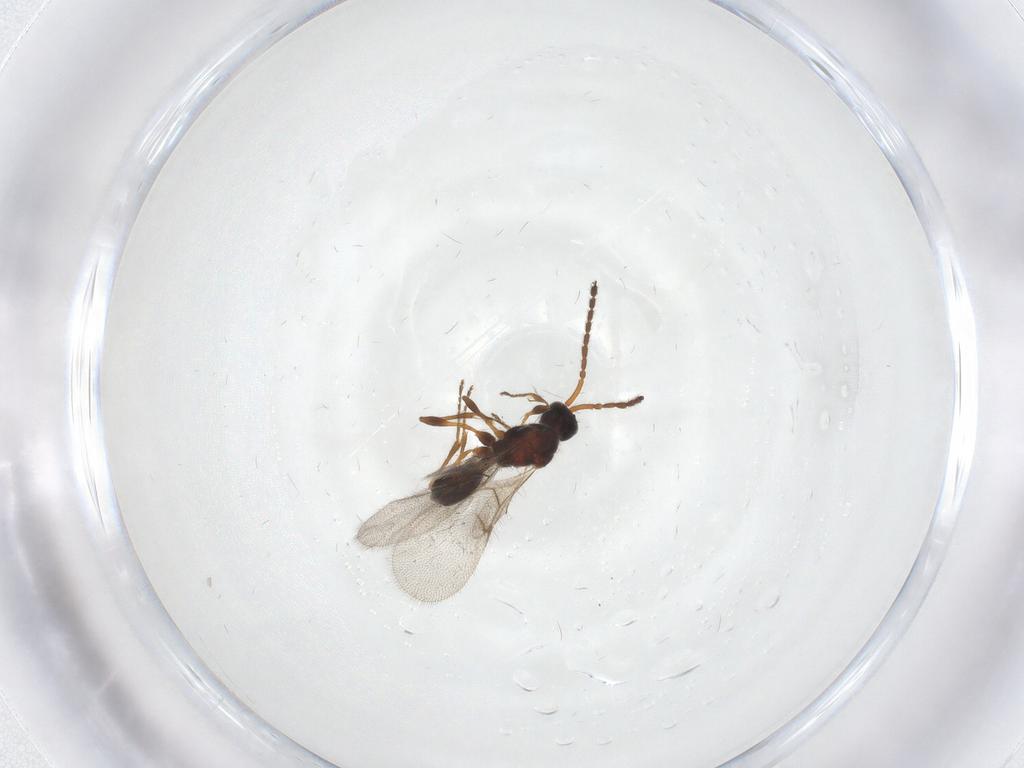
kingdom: Animalia
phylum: Arthropoda
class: Insecta
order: Hymenoptera
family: Diapriidae
